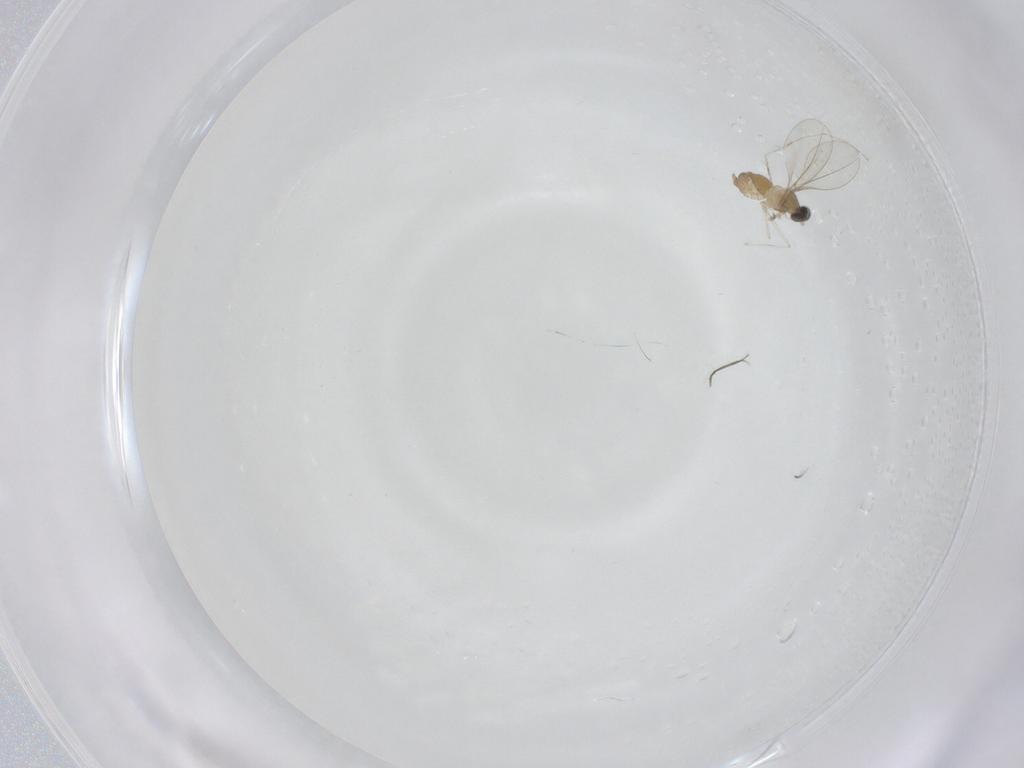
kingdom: Animalia
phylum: Arthropoda
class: Insecta
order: Diptera
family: Cecidomyiidae
